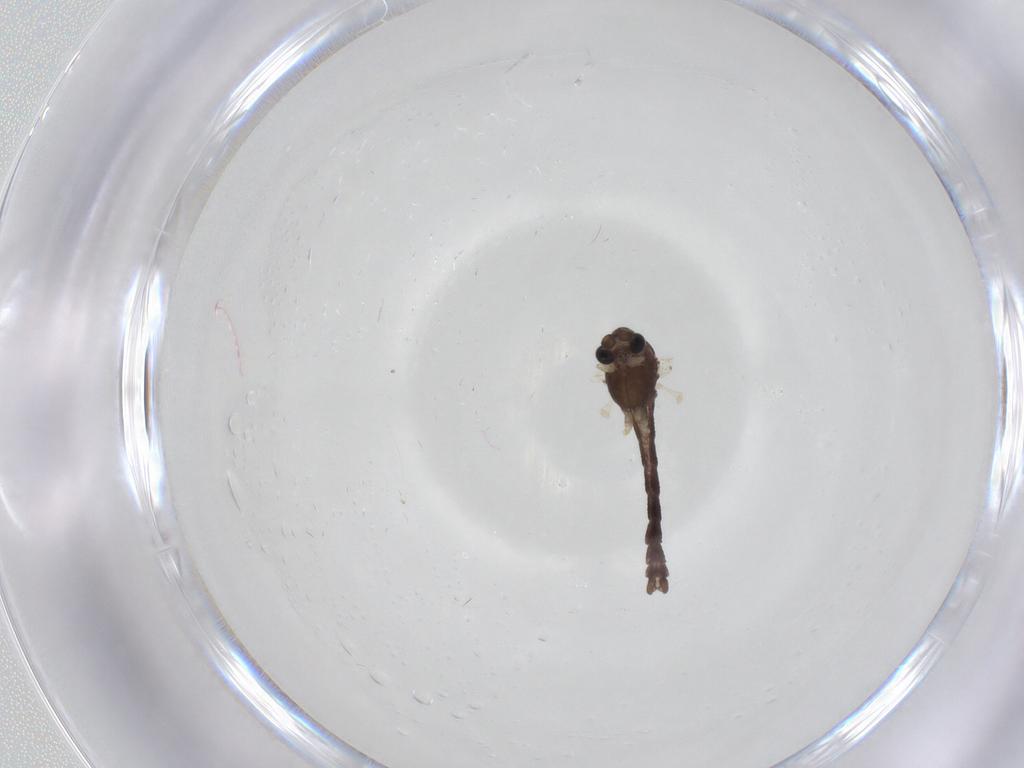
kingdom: Animalia
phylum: Arthropoda
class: Insecta
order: Diptera
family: Chironomidae
